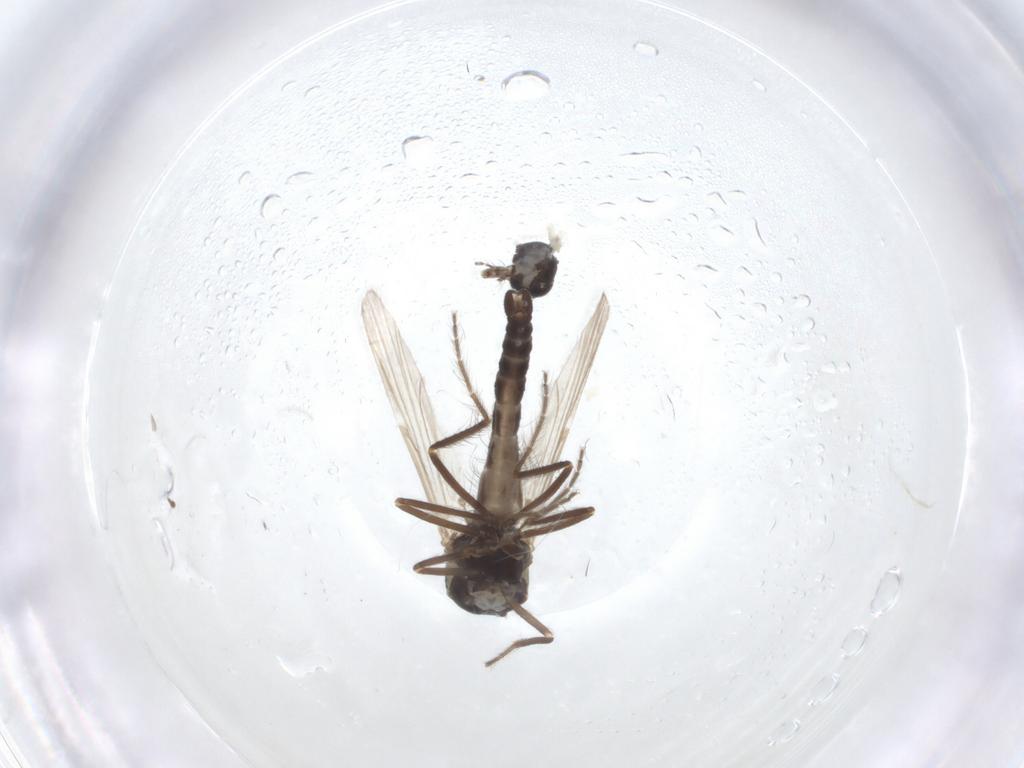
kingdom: Animalia
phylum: Arthropoda
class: Insecta
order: Diptera
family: Ceratopogonidae
